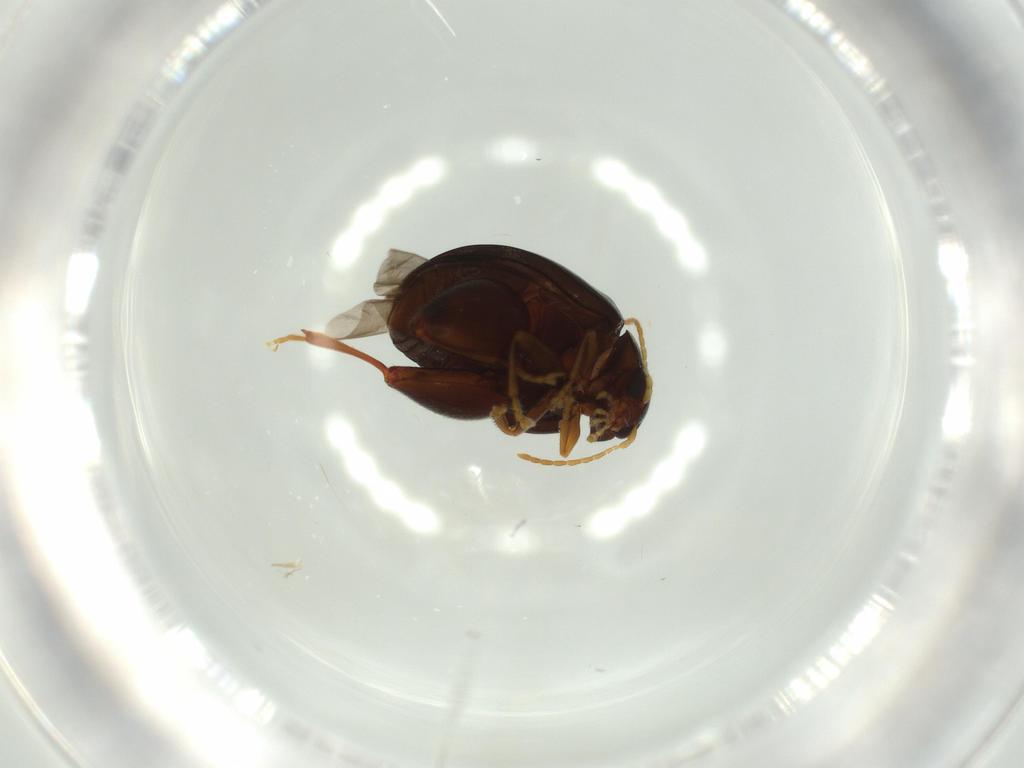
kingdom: Animalia
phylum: Arthropoda
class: Insecta
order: Coleoptera
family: Chrysomelidae
